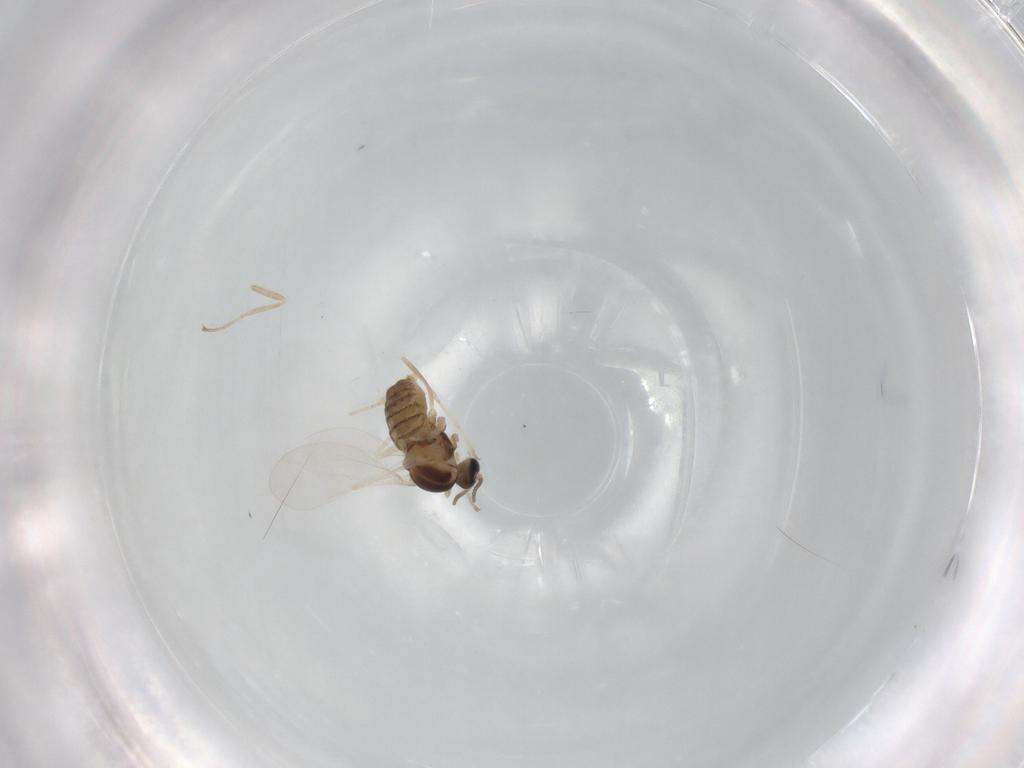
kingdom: Animalia
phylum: Arthropoda
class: Insecta
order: Diptera
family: Cecidomyiidae
